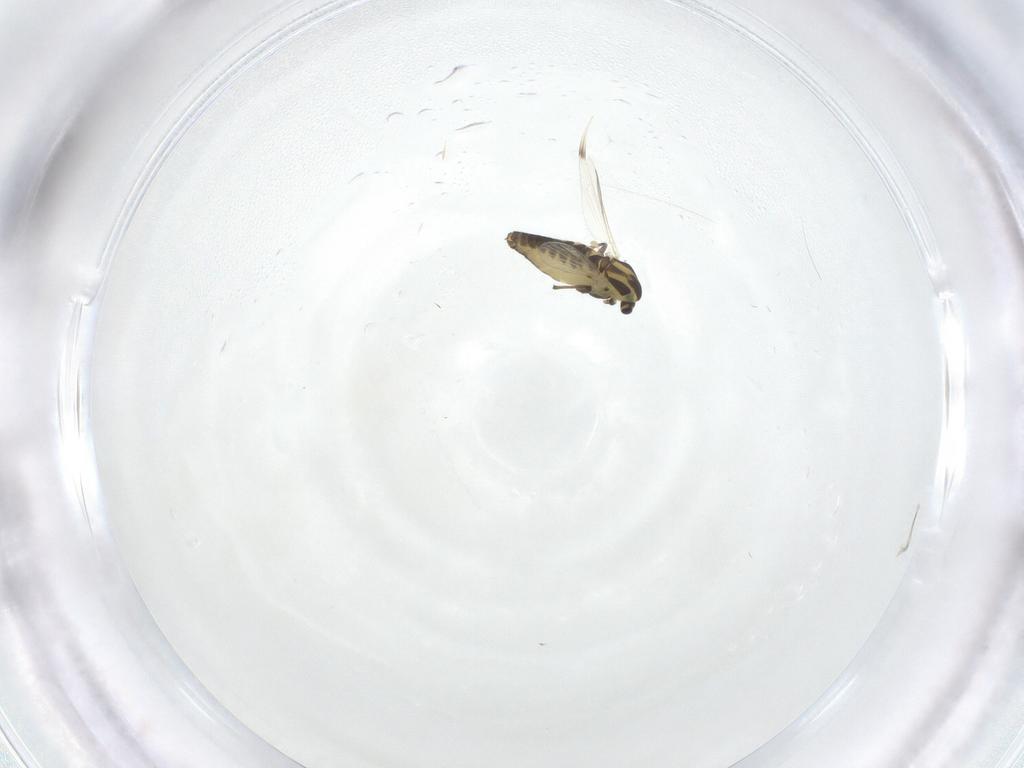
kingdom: Animalia
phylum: Arthropoda
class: Insecta
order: Diptera
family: Chironomidae
